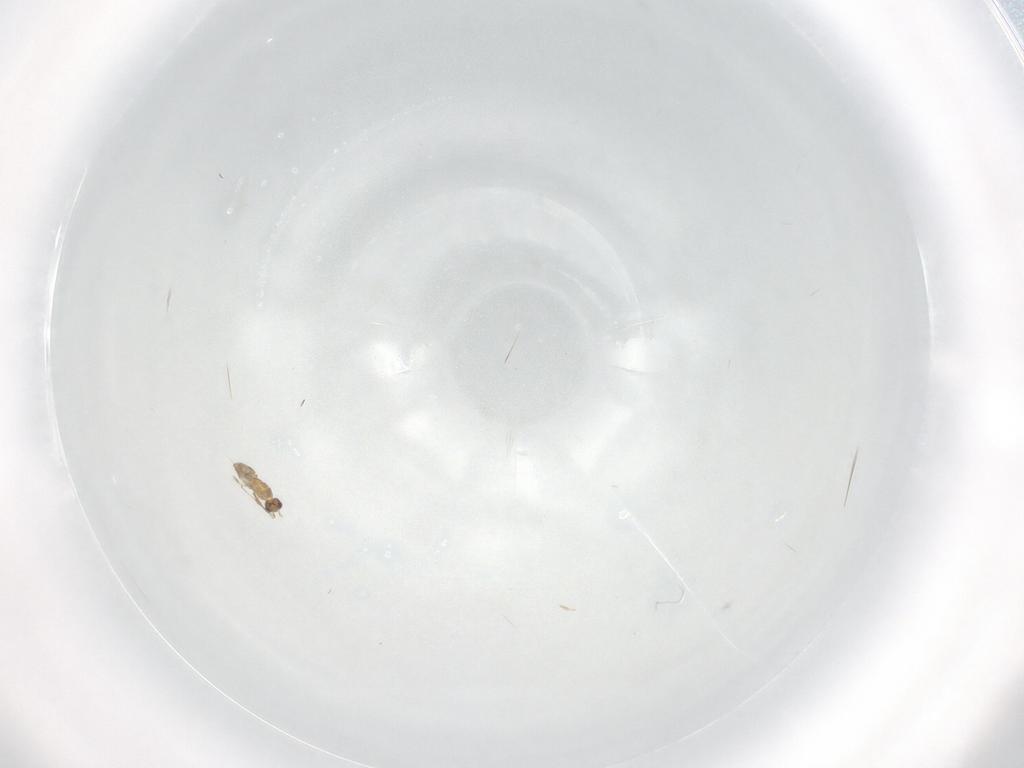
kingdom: Animalia
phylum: Arthropoda
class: Insecta
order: Hymenoptera
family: Mymaridae
